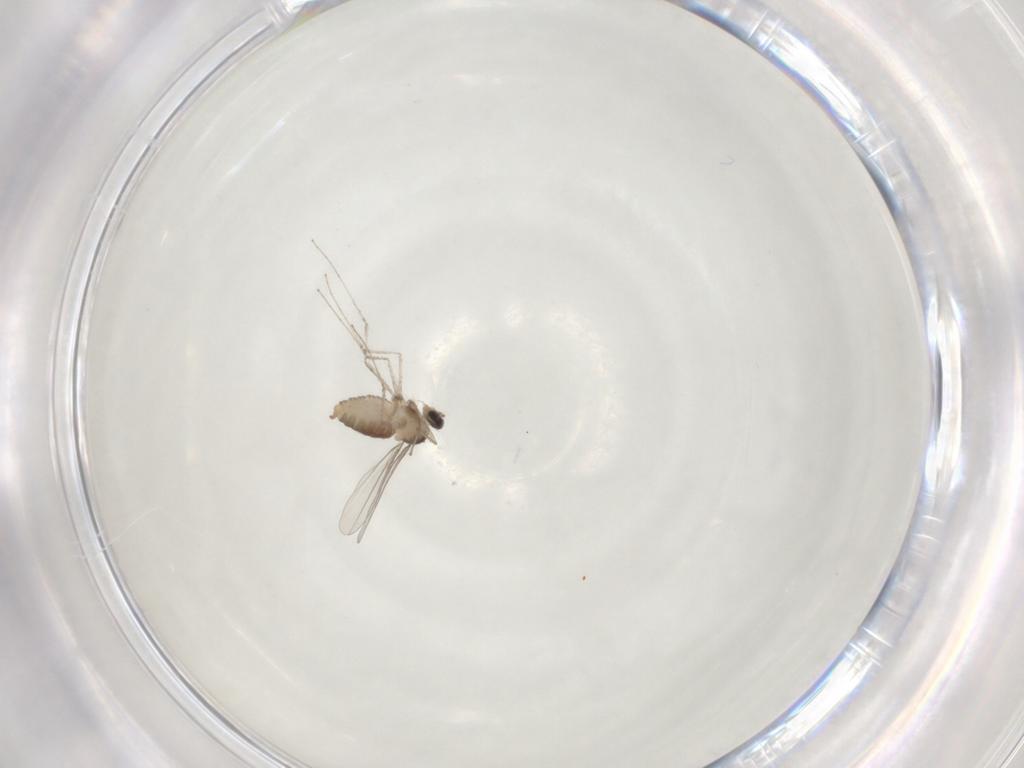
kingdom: Animalia
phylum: Arthropoda
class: Insecta
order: Diptera
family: Cecidomyiidae
